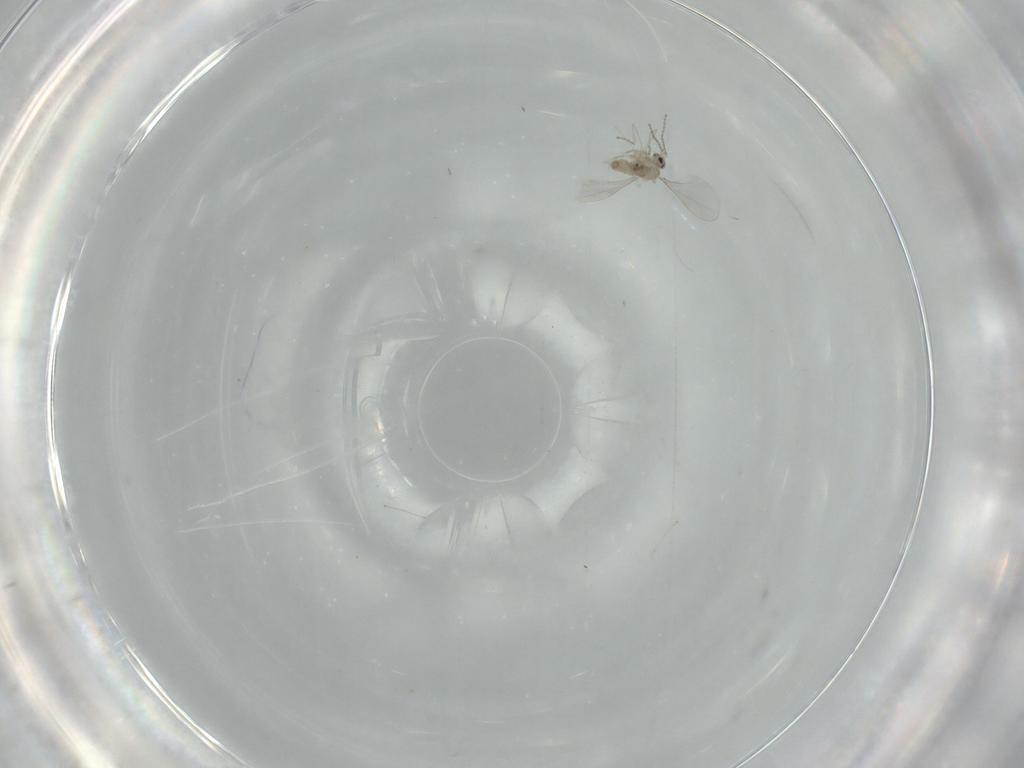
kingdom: Animalia
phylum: Arthropoda
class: Insecta
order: Diptera
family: Cecidomyiidae
